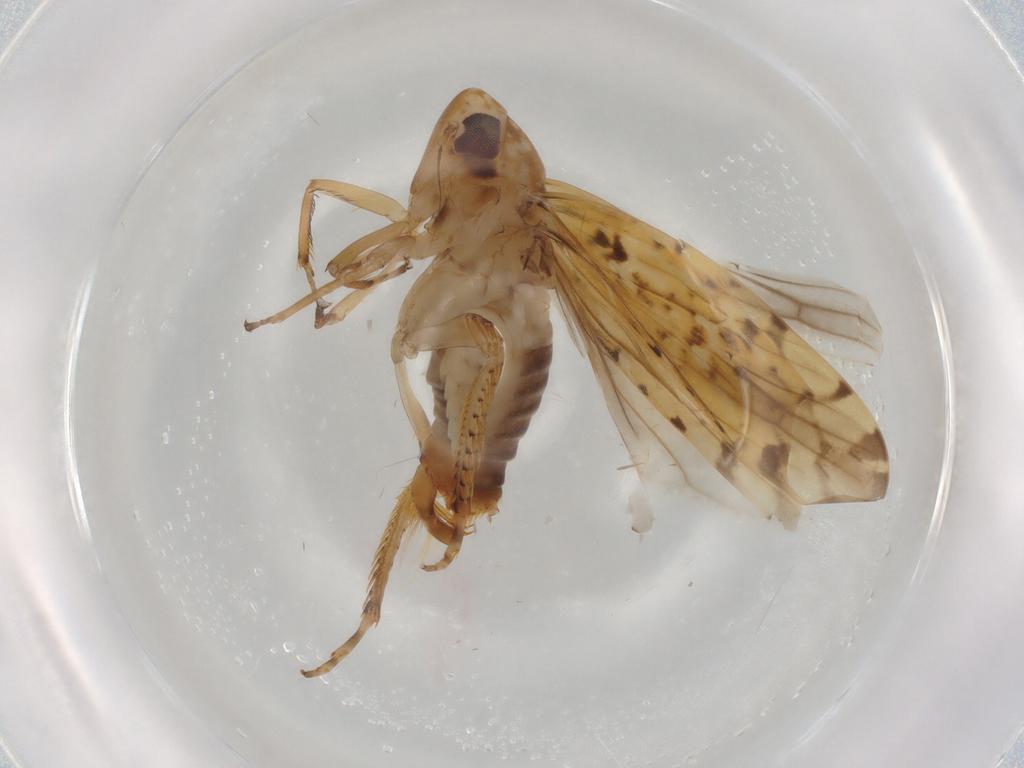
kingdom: Animalia
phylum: Arthropoda
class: Insecta
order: Hemiptera
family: Cicadellidae
